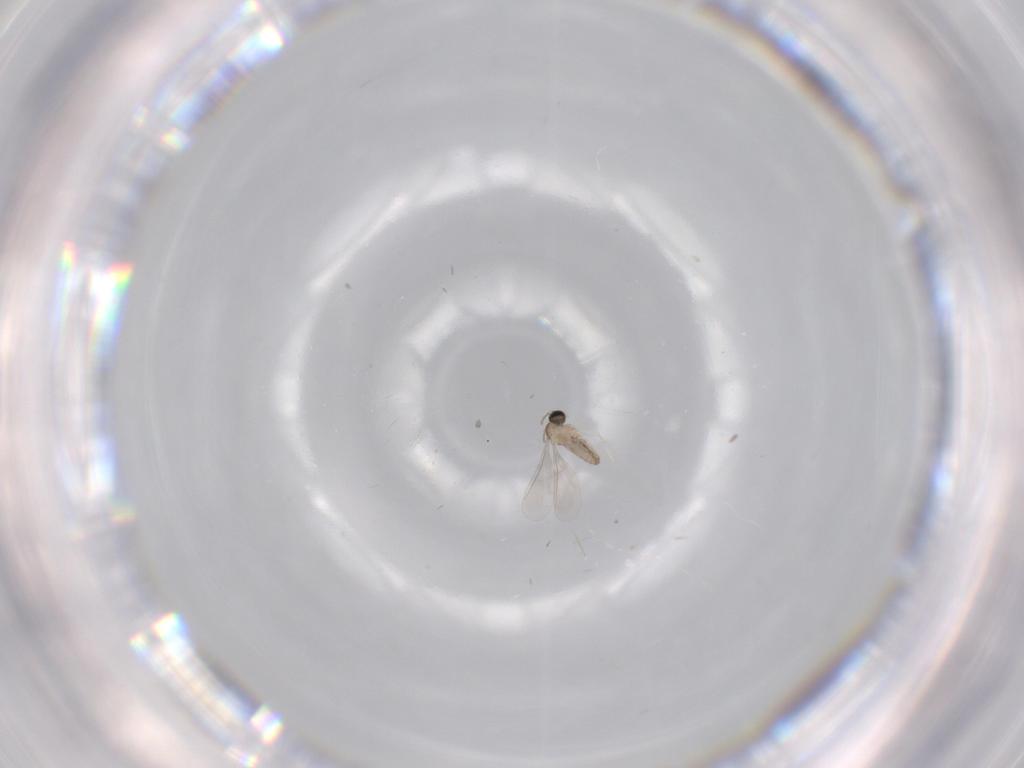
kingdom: Animalia
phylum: Arthropoda
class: Insecta
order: Diptera
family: Cecidomyiidae
